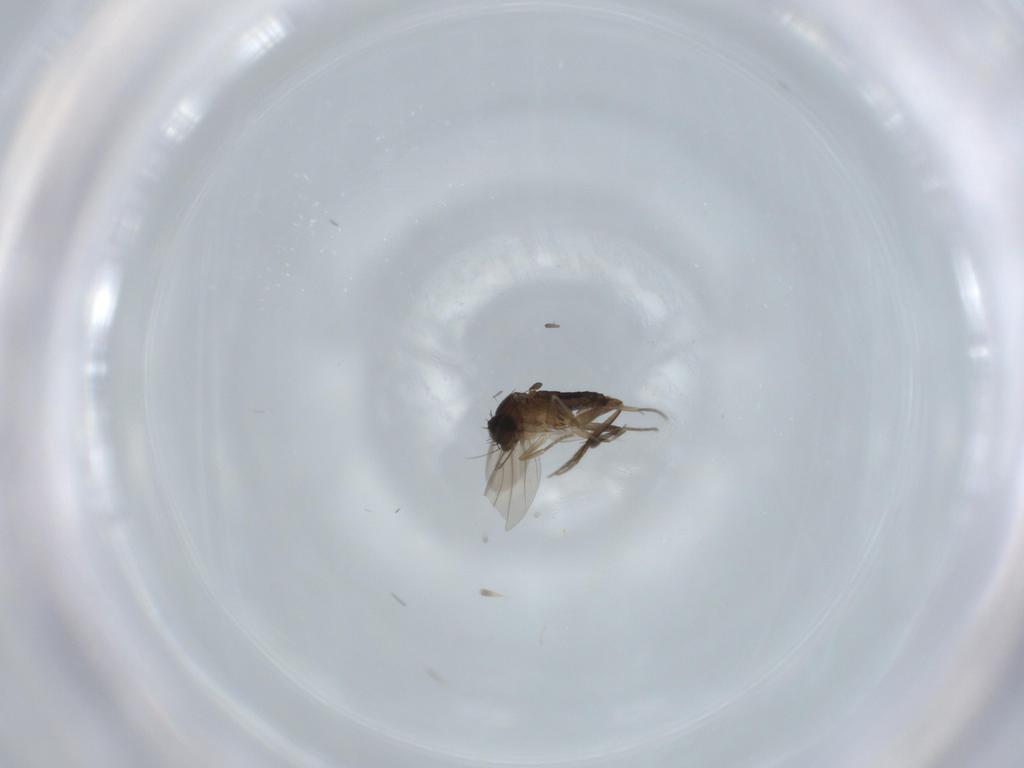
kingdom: Animalia
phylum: Arthropoda
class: Insecta
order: Diptera
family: Phoridae
